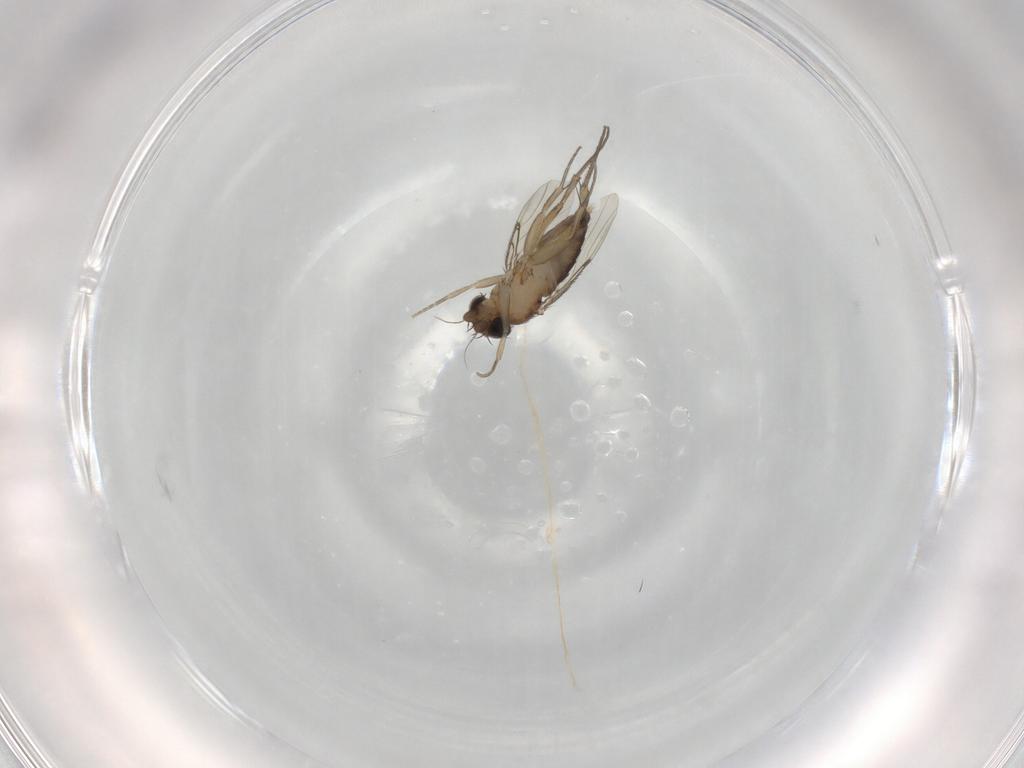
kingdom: Animalia
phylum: Arthropoda
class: Insecta
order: Diptera
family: Phoridae
